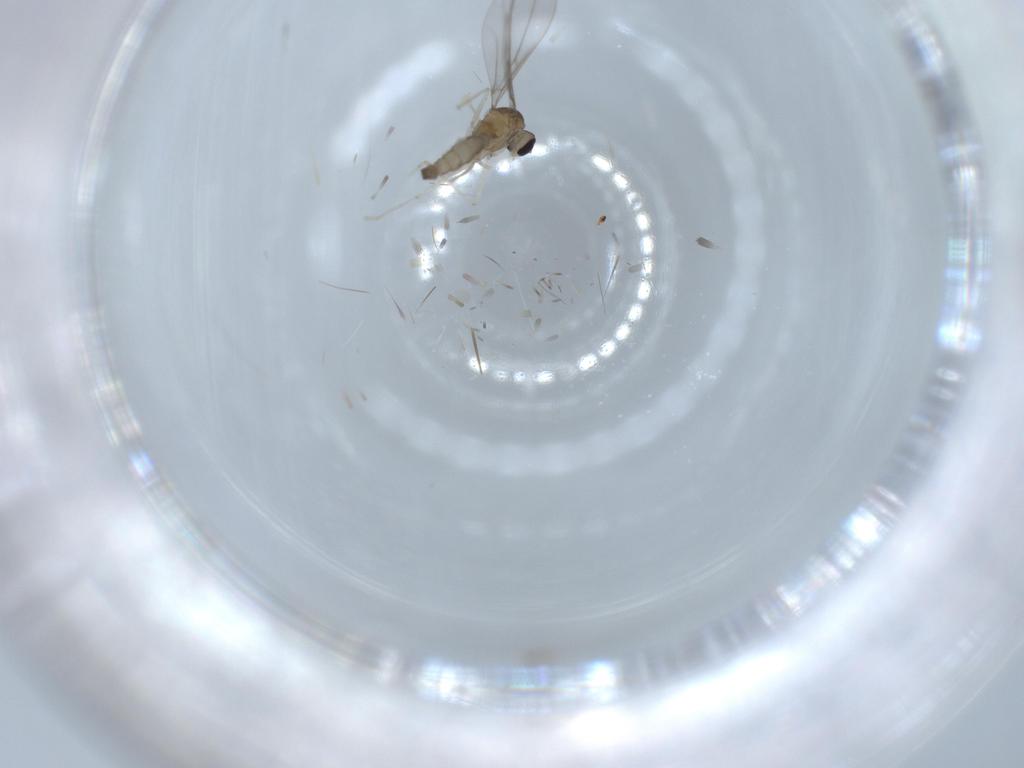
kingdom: Animalia
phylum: Arthropoda
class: Insecta
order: Diptera
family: Cecidomyiidae
